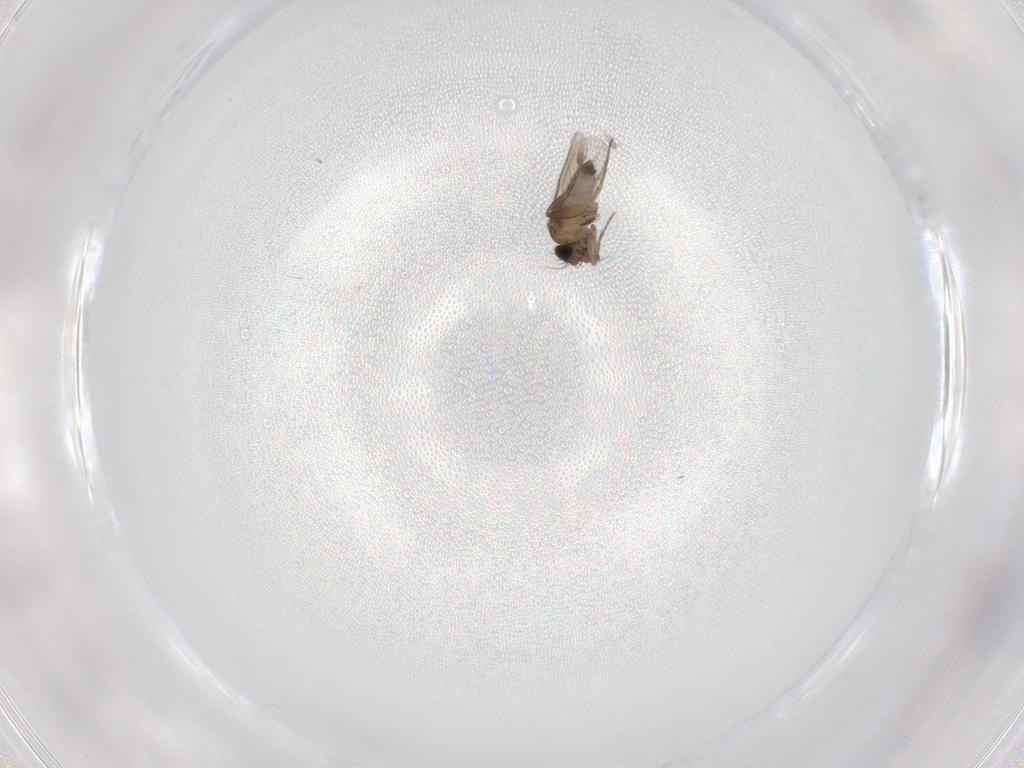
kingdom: Animalia
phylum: Arthropoda
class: Insecta
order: Diptera
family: Phoridae
